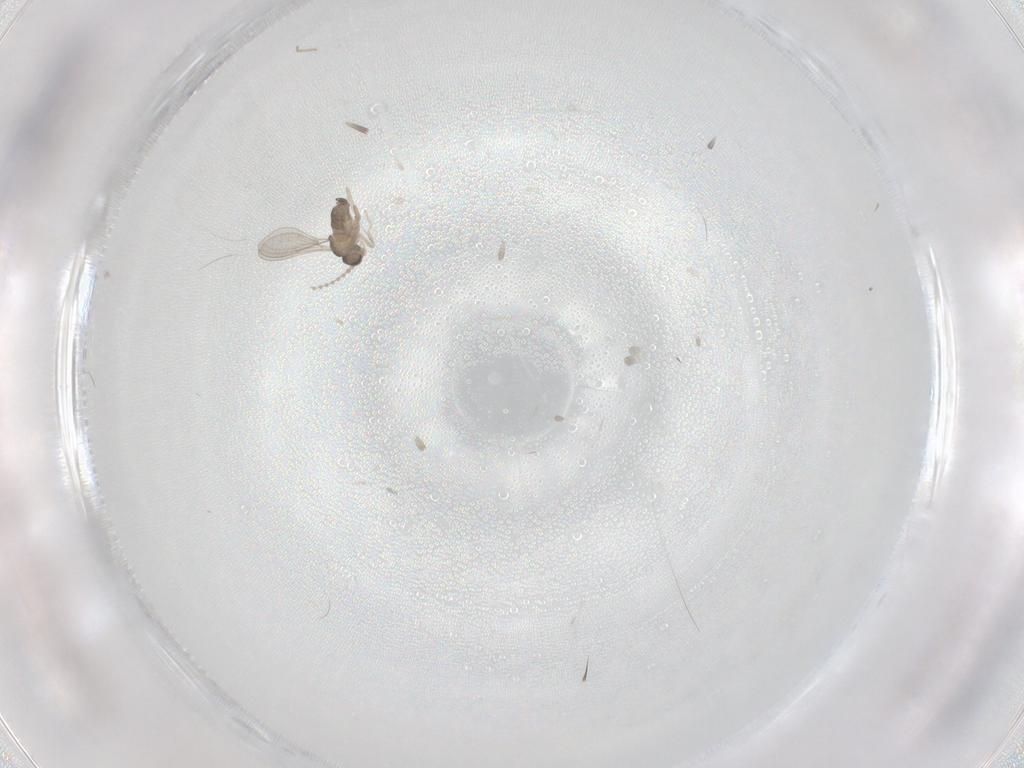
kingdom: Animalia
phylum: Arthropoda
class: Insecta
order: Diptera
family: Cecidomyiidae
